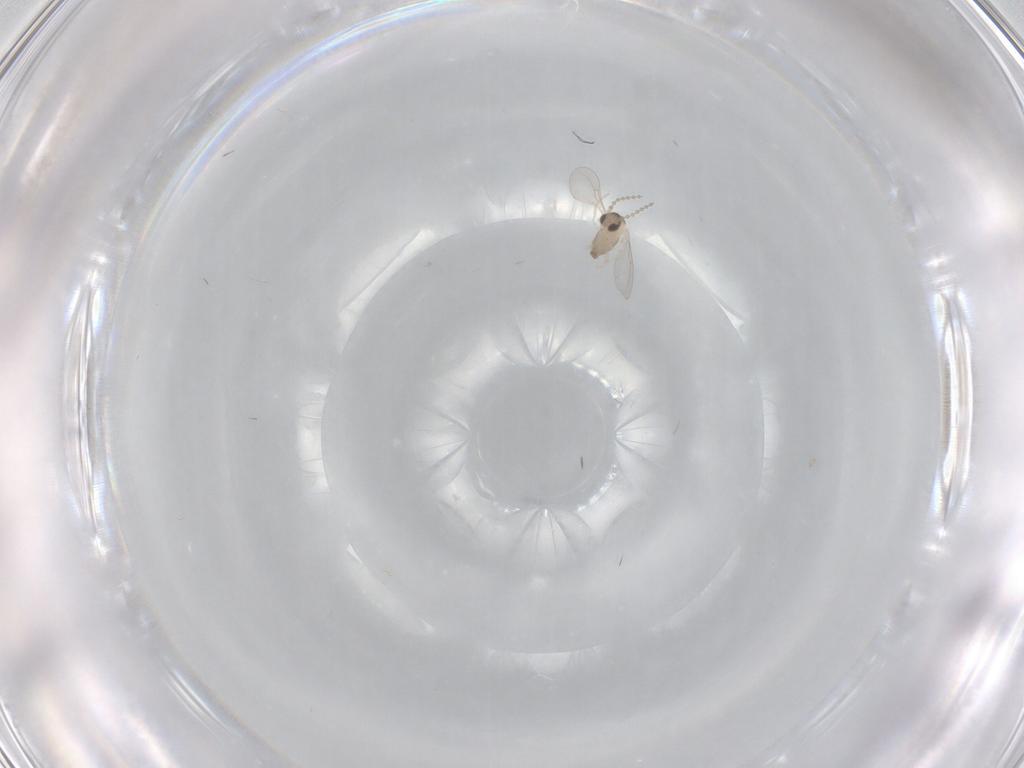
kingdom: Animalia
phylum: Arthropoda
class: Insecta
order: Diptera
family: Cecidomyiidae
